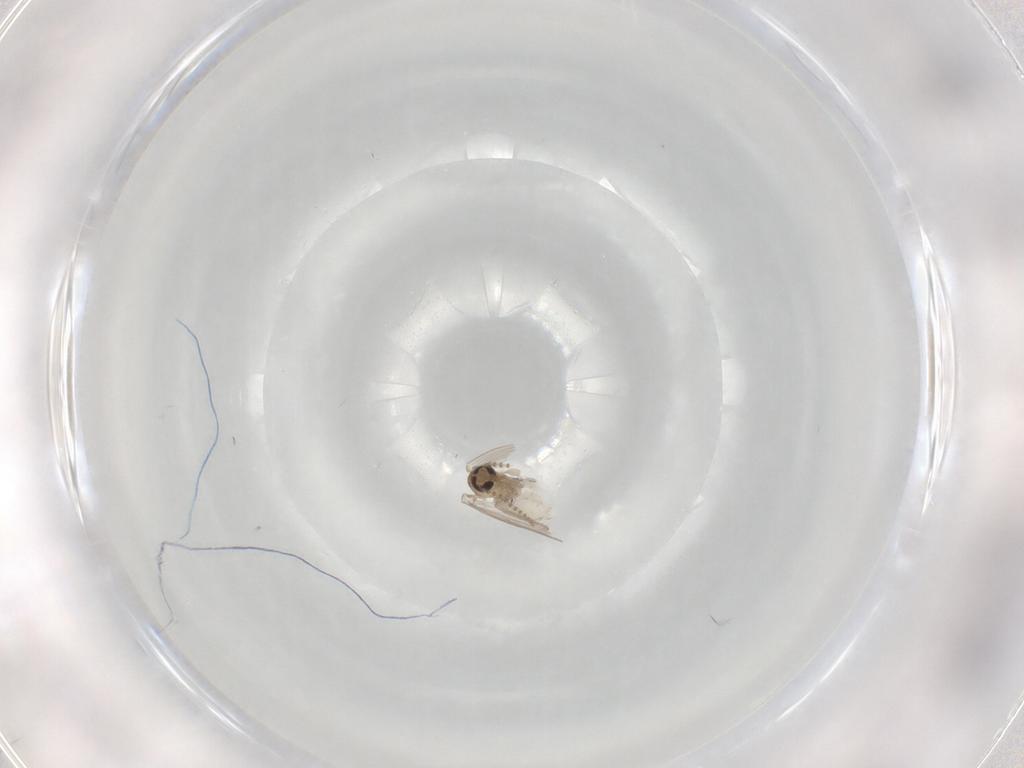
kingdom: Animalia
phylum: Arthropoda
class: Insecta
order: Diptera
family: Psychodidae
